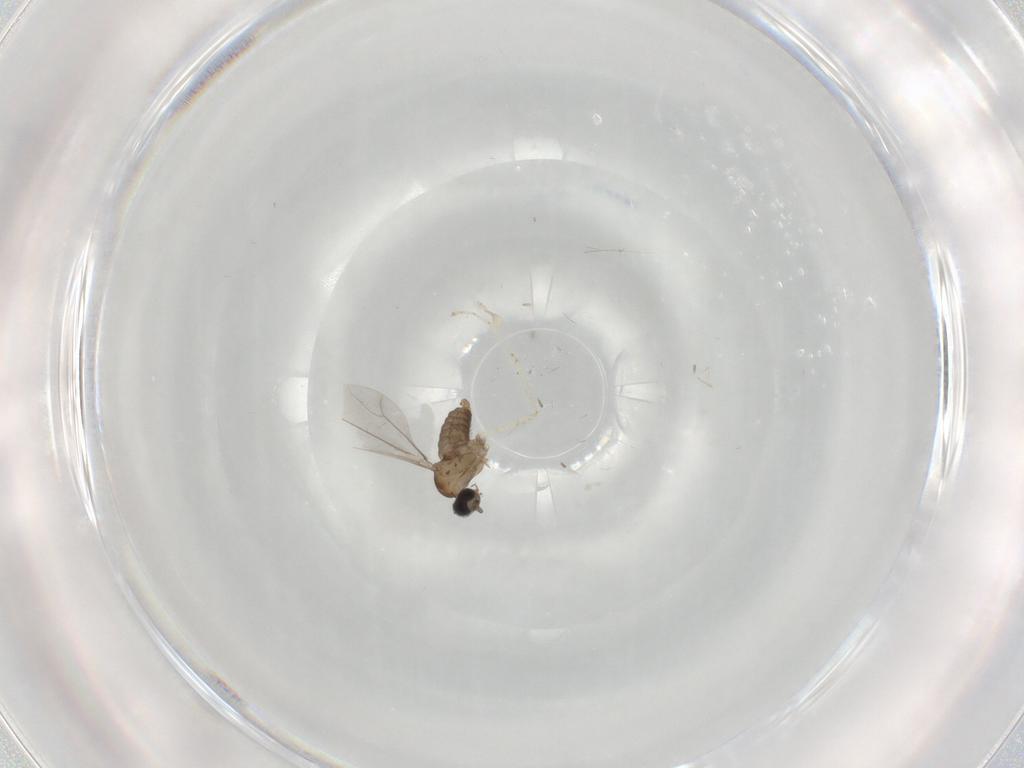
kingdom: Animalia
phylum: Arthropoda
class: Insecta
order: Diptera
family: Cecidomyiidae
